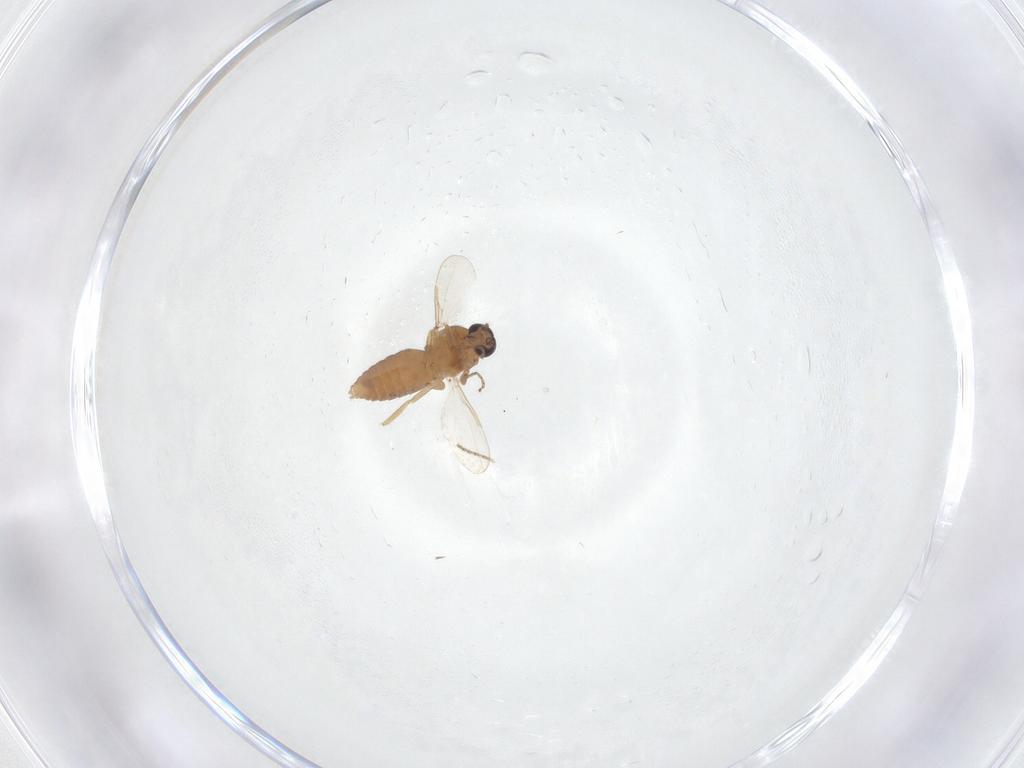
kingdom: Animalia
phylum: Arthropoda
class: Insecta
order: Diptera
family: Ceratopogonidae
